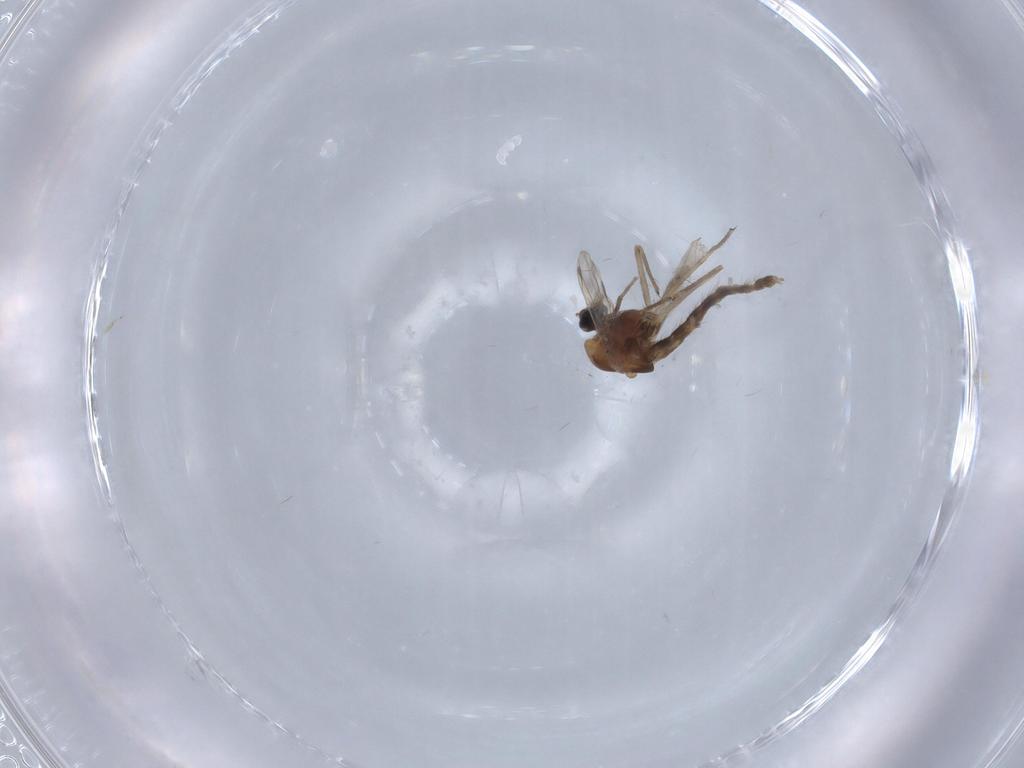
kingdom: Animalia
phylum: Arthropoda
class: Insecta
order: Diptera
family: Chironomidae
